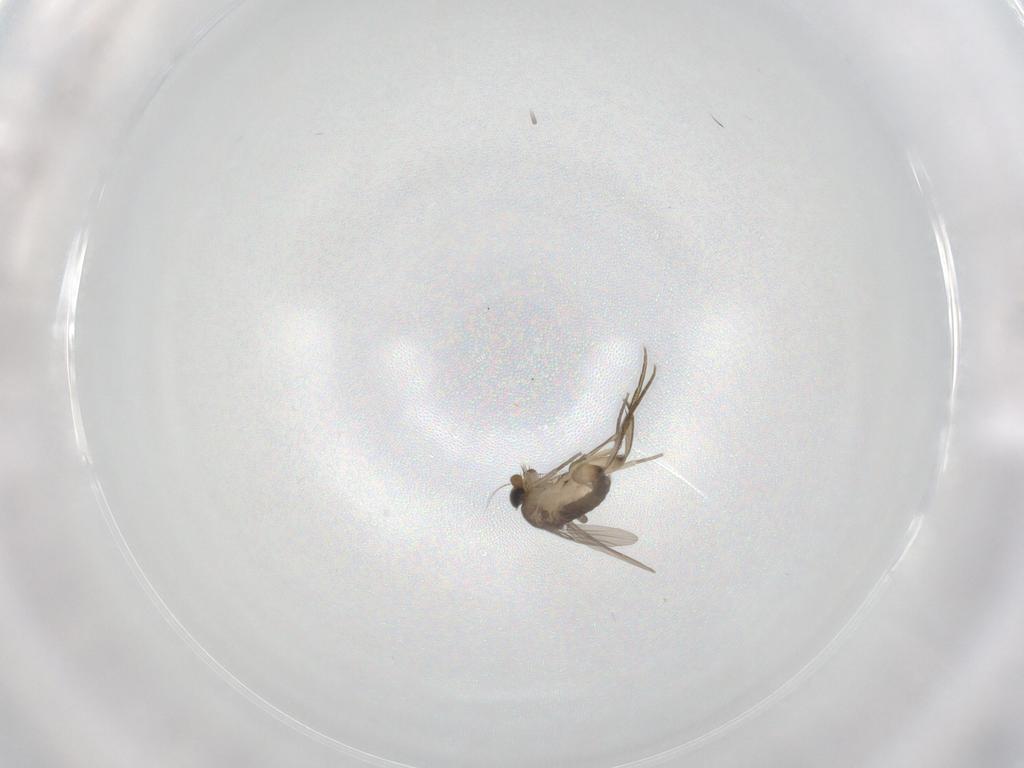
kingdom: Animalia
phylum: Arthropoda
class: Insecta
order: Diptera
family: Phoridae
